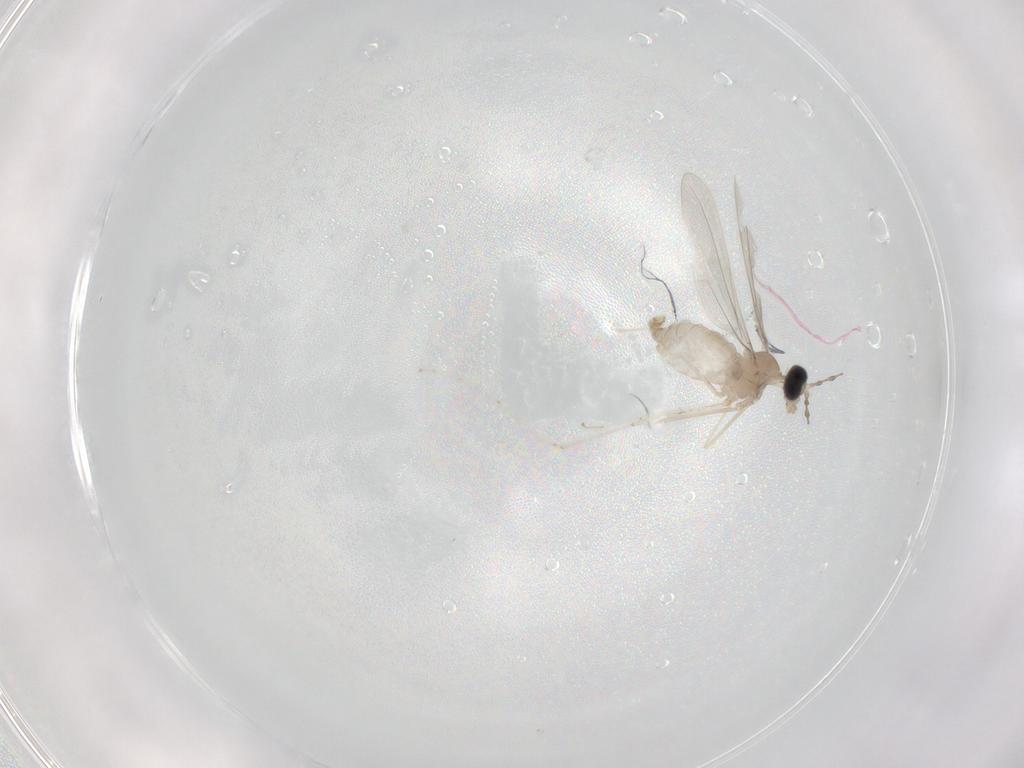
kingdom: Animalia
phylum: Arthropoda
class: Insecta
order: Diptera
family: Cecidomyiidae
